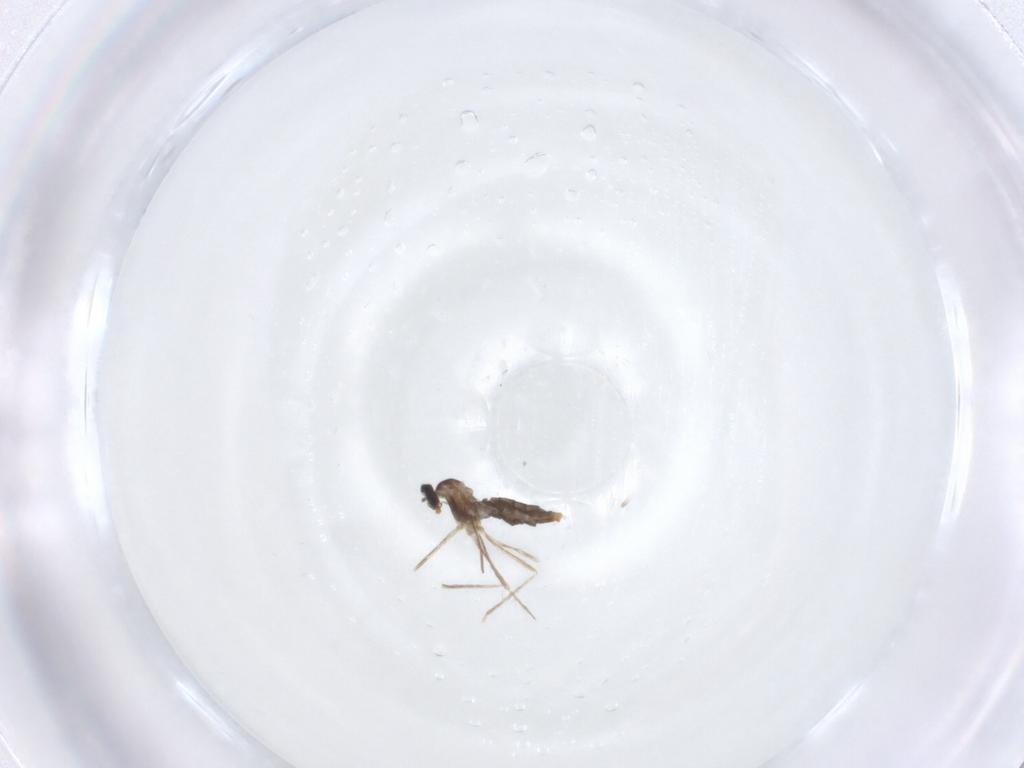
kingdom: Animalia
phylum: Arthropoda
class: Insecta
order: Diptera
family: Cecidomyiidae
